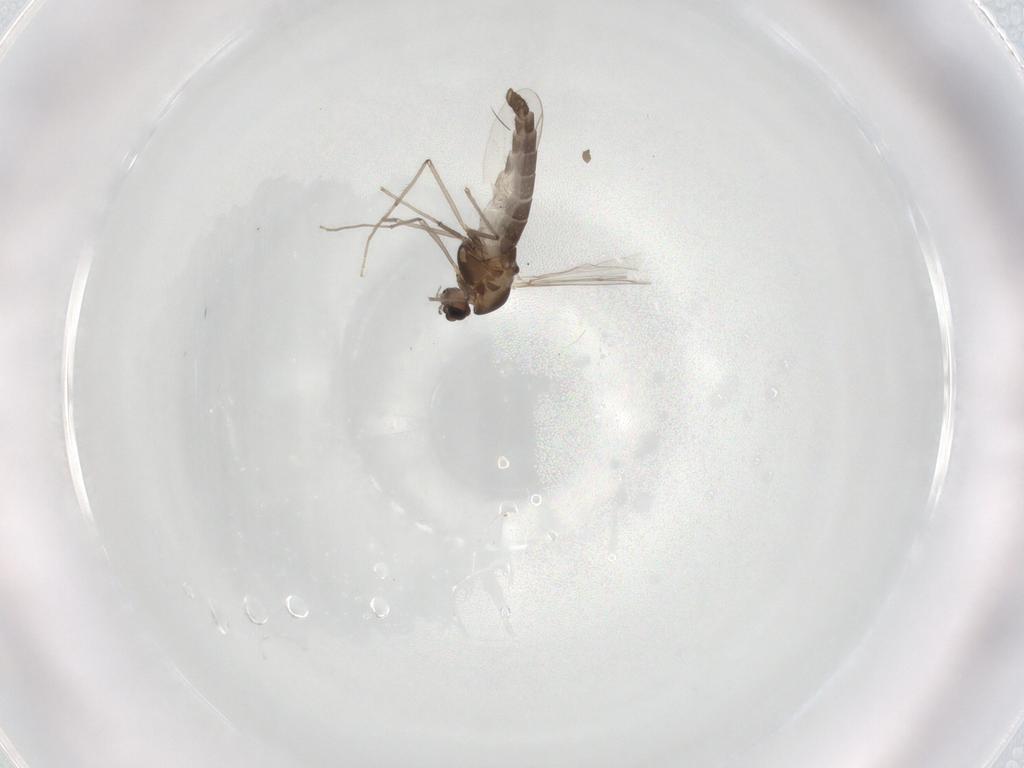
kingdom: Animalia
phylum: Arthropoda
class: Insecta
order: Diptera
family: Chironomidae
